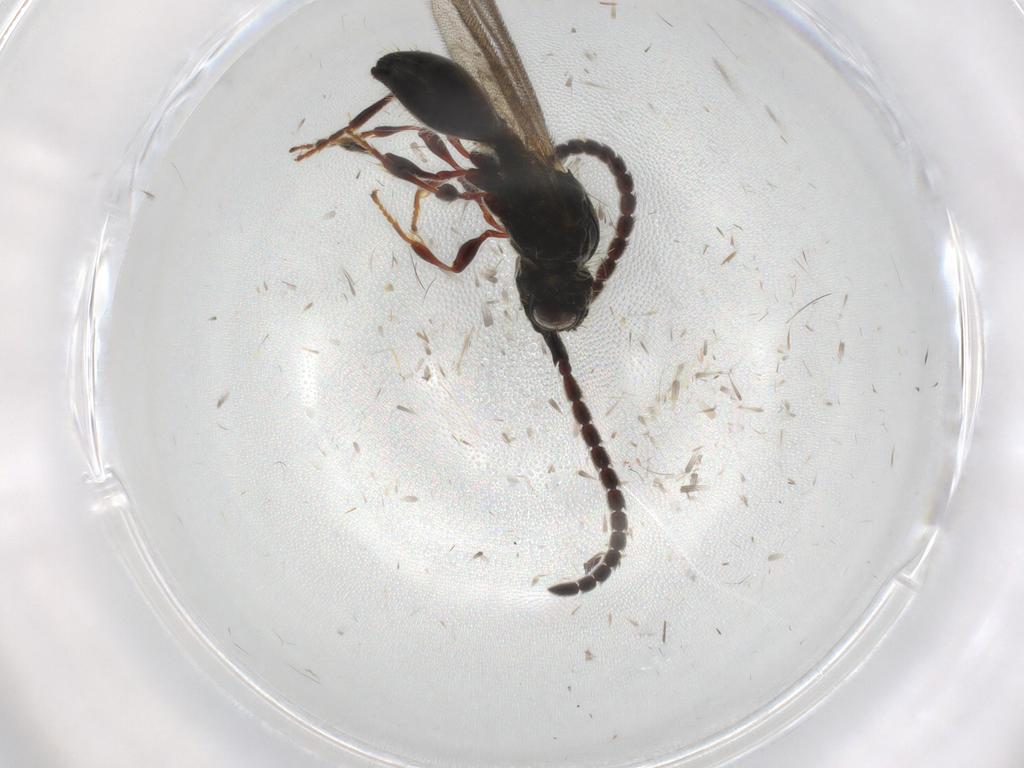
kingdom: Animalia
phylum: Arthropoda
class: Insecta
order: Hymenoptera
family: Diapriidae
